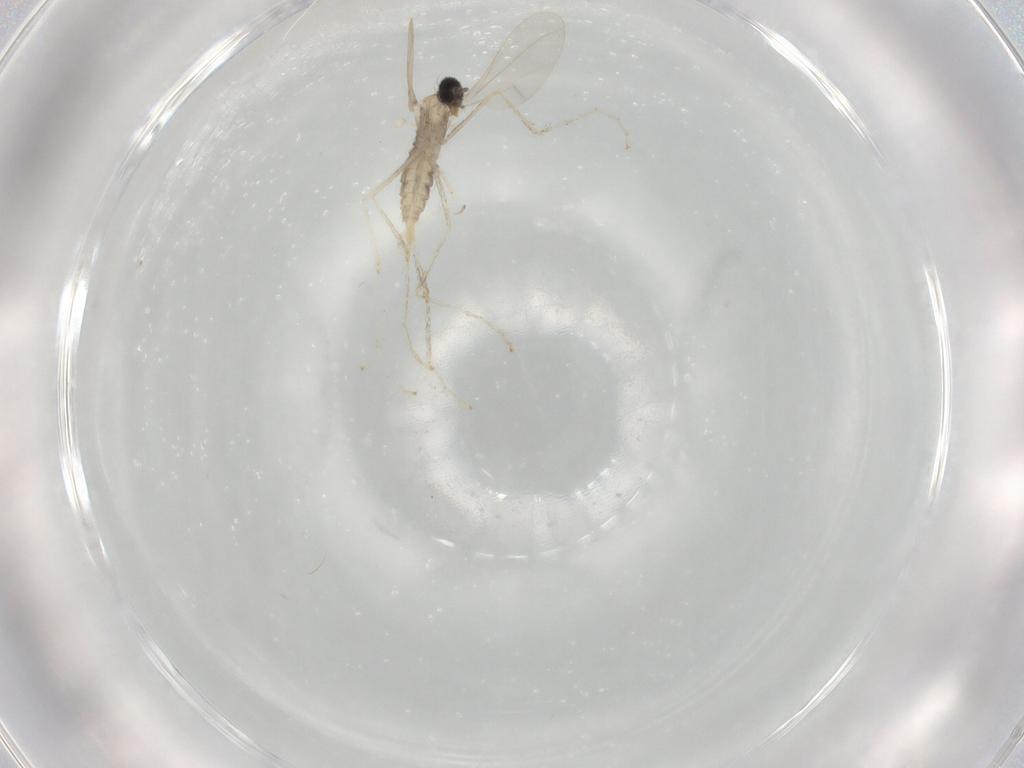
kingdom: Animalia
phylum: Arthropoda
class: Insecta
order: Diptera
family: Cecidomyiidae
